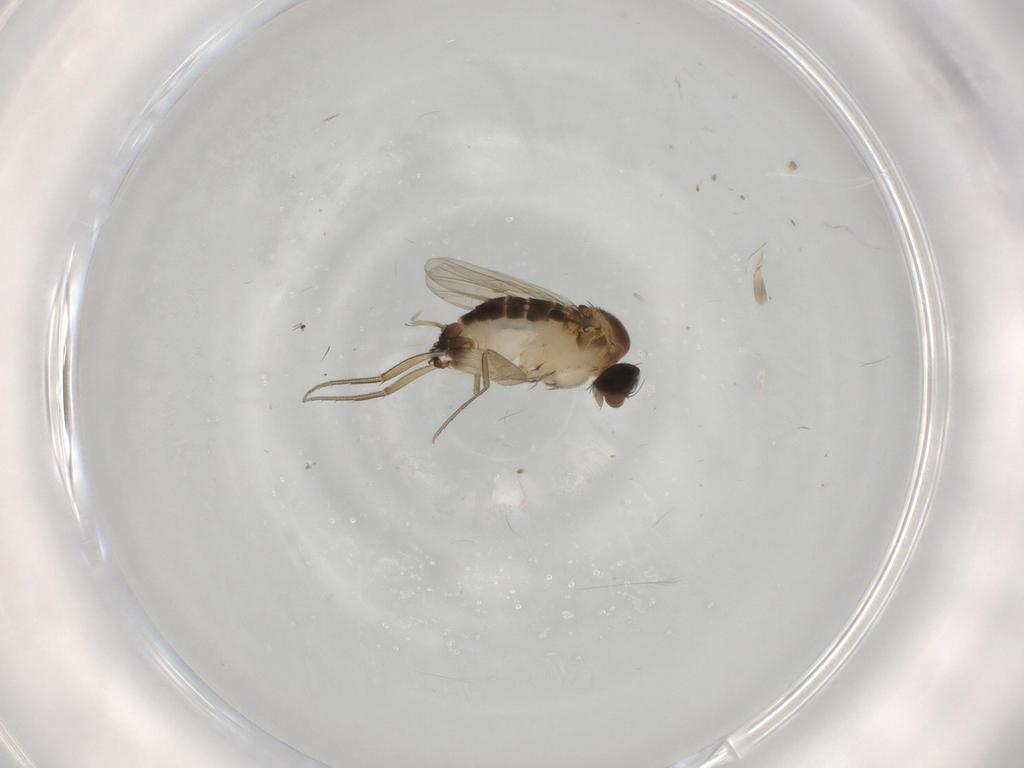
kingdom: Animalia
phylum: Arthropoda
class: Insecta
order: Diptera
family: Phoridae
